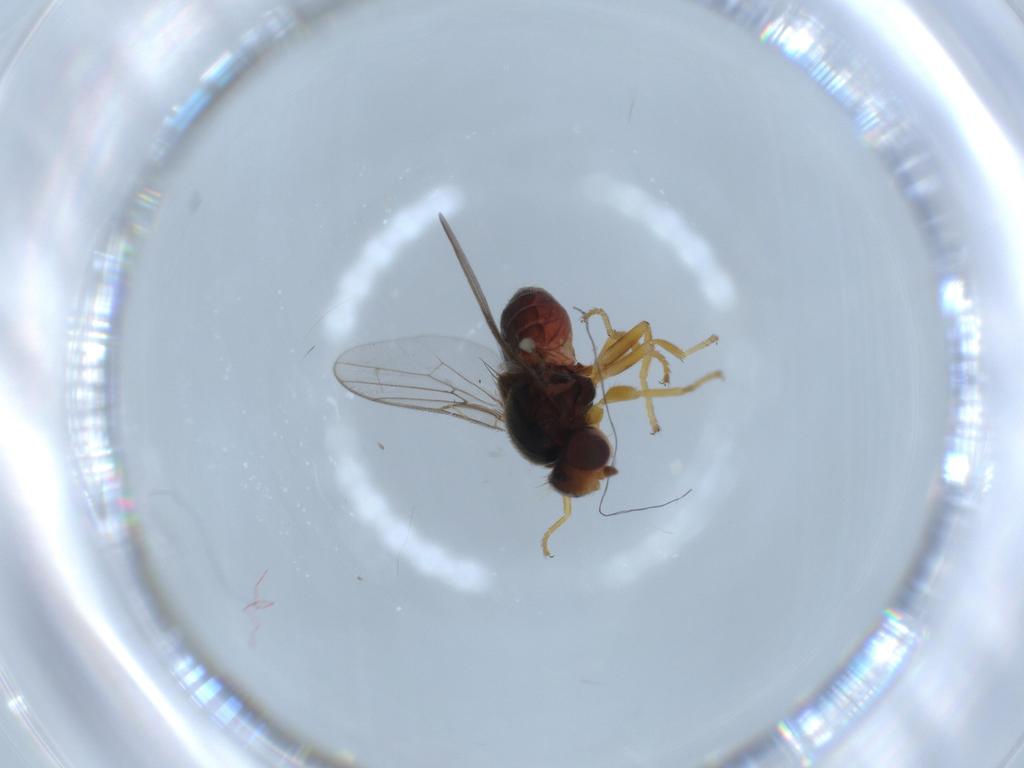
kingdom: Animalia
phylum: Arthropoda
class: Insecta
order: Diptera
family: Chloropidae
